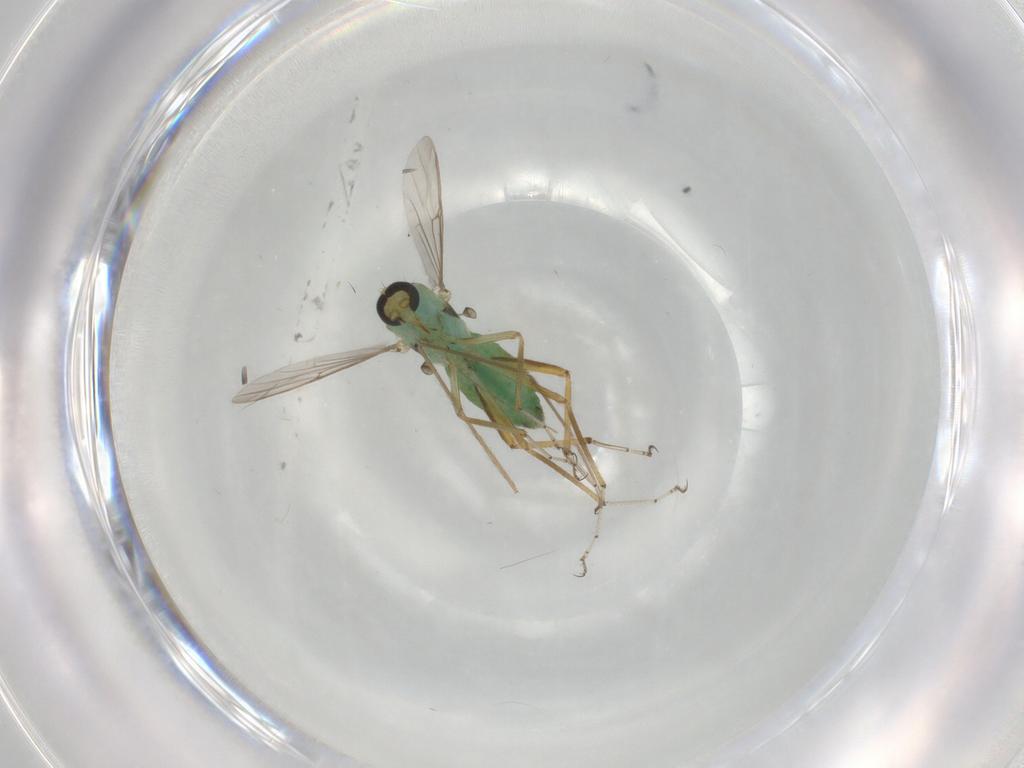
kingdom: Animalia
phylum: Arthropoda
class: Insecta
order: Diptera
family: Ceratopogonidae
